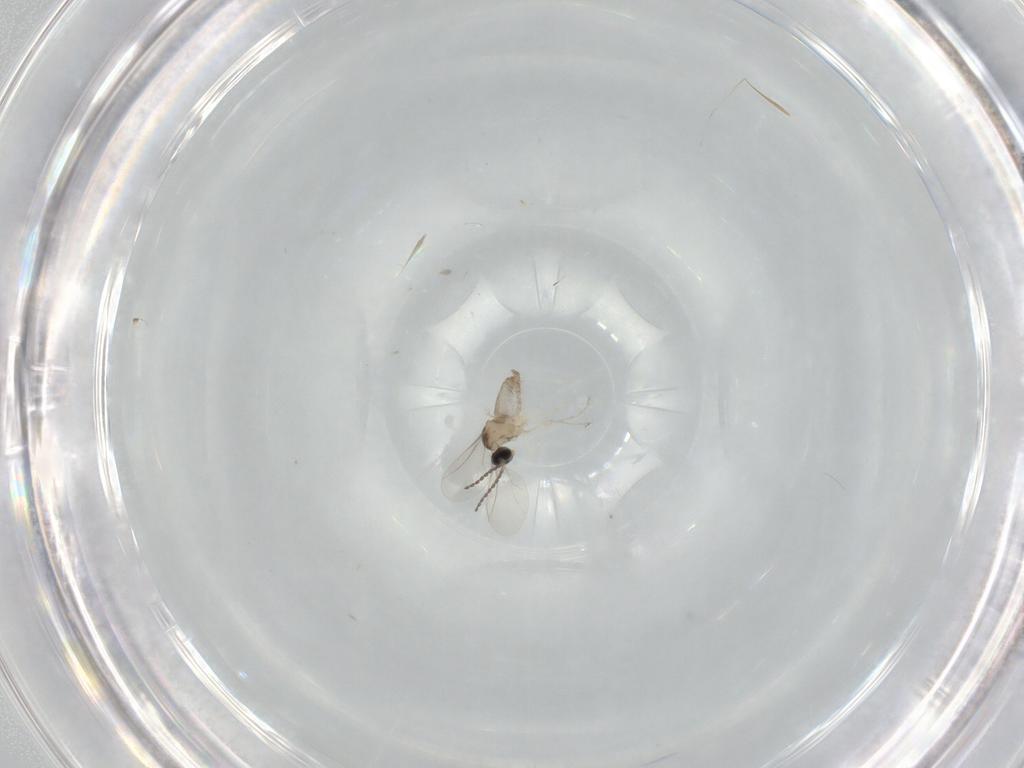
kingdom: Animalia
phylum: Arthropoda
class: Insecta
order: Diptera
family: Cecidomyiidae
